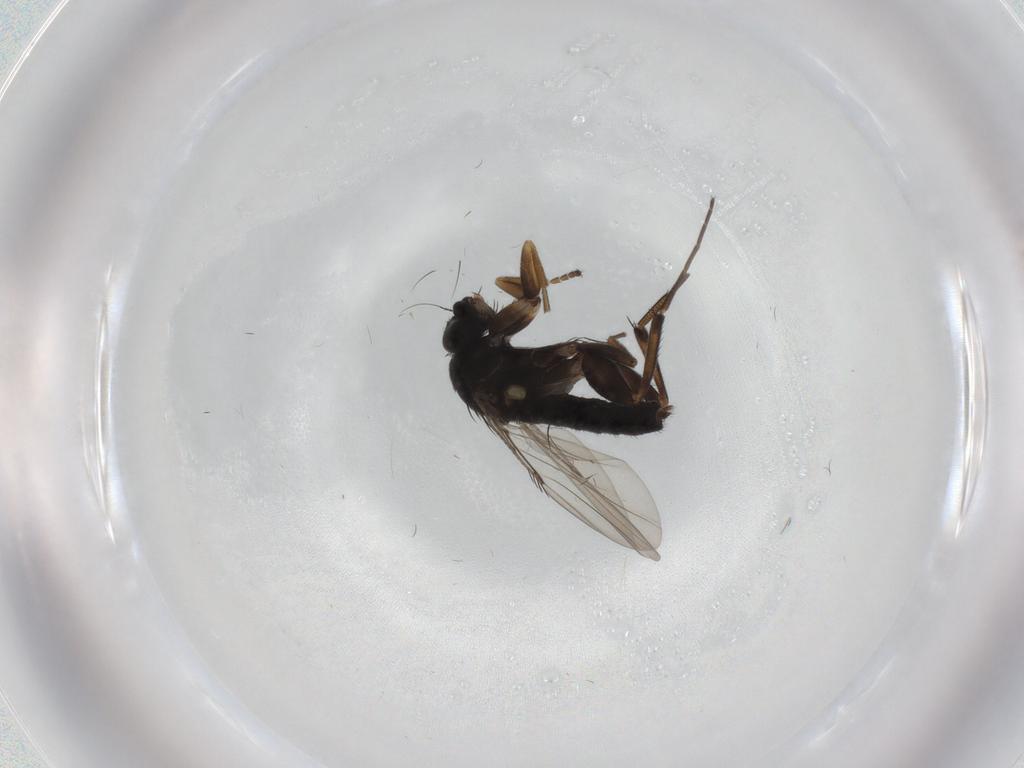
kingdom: Animalia
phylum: Arthropoda
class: Insecta
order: Diptera
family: Phoridae
